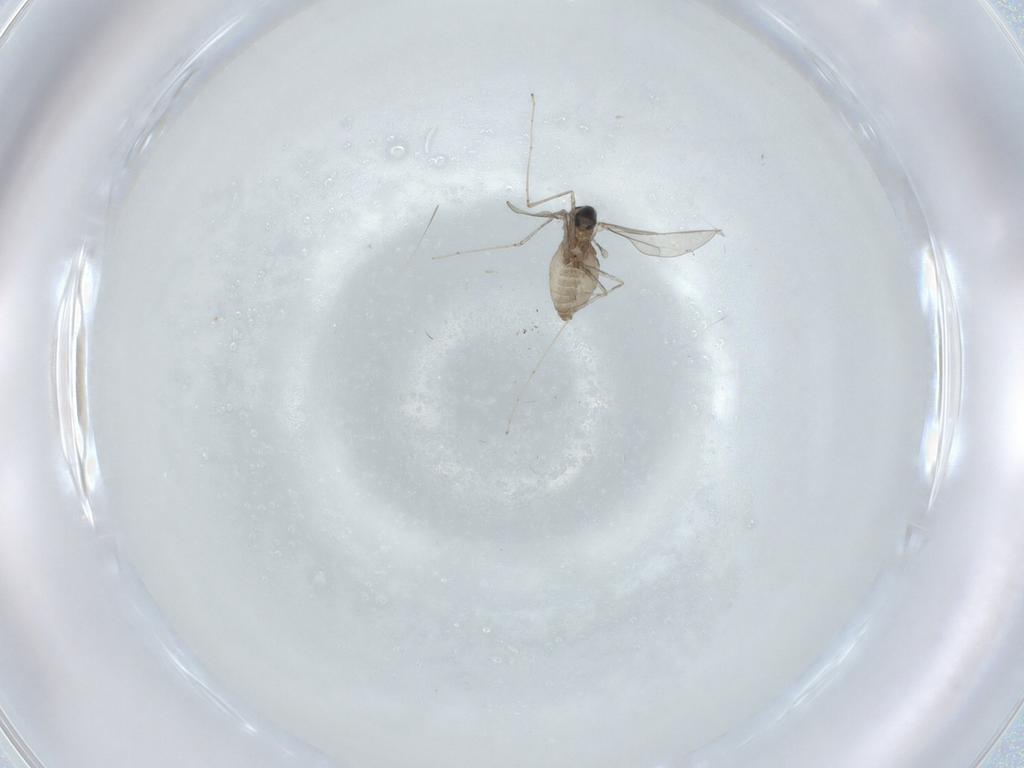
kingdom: Animalia
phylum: Arthropoda
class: Insecta
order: Diptera
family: Cecidomyiidae
